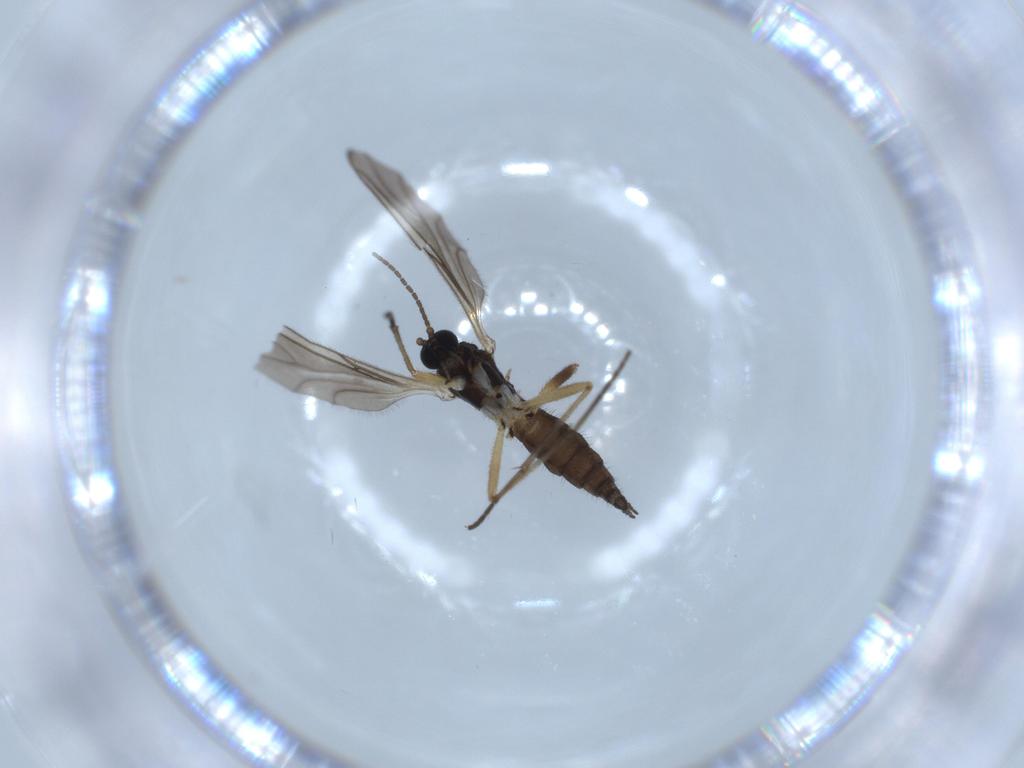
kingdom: Animalia
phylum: Arthropoda
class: Insecta
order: Diptera
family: Sciaridae
